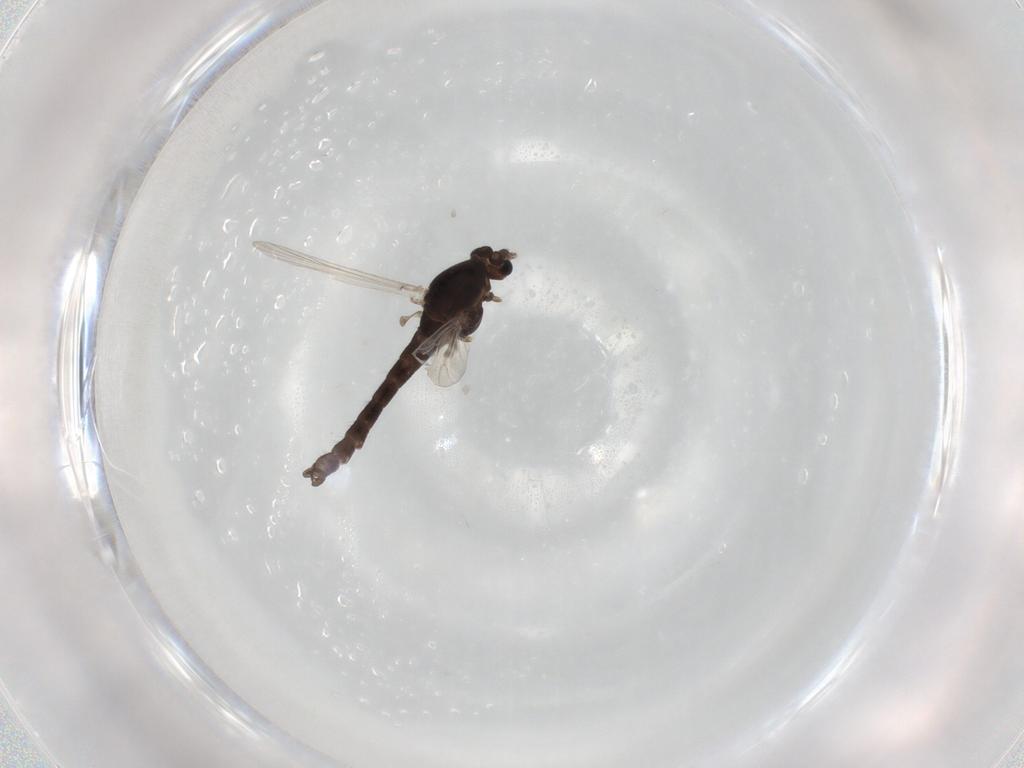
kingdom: Animalia
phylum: Arthropoda
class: Insecta
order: Diptera
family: Chironomidae
